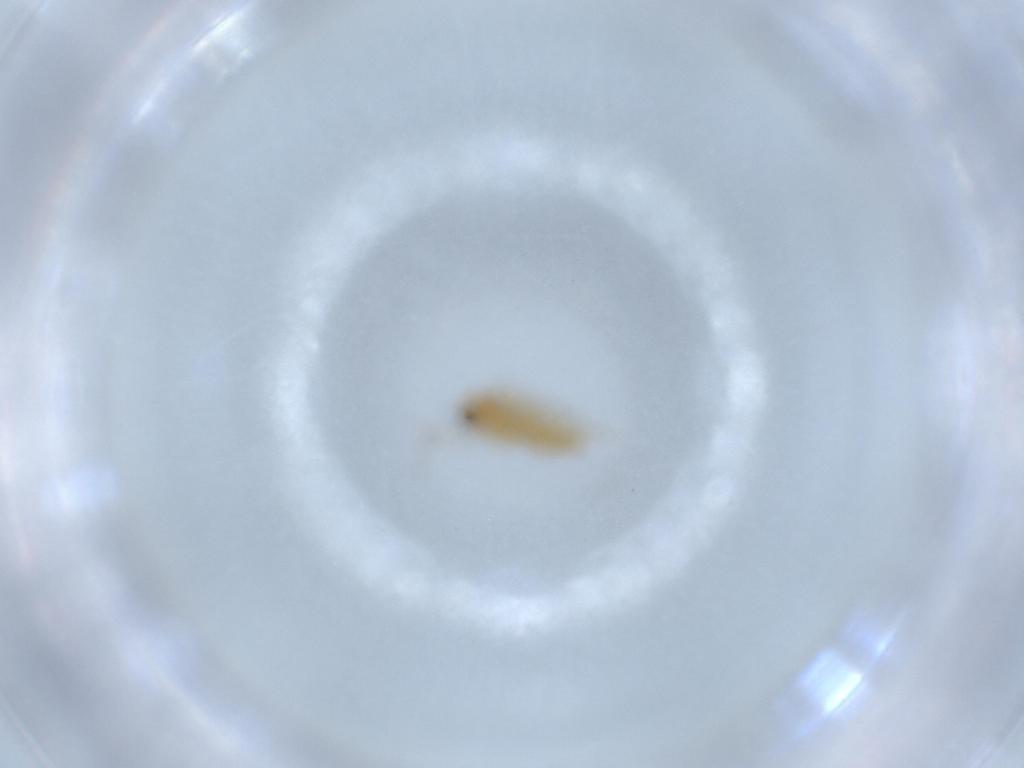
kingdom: Animalia
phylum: Arthropoda
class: Insecta
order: Diptera
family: Chironomidae
